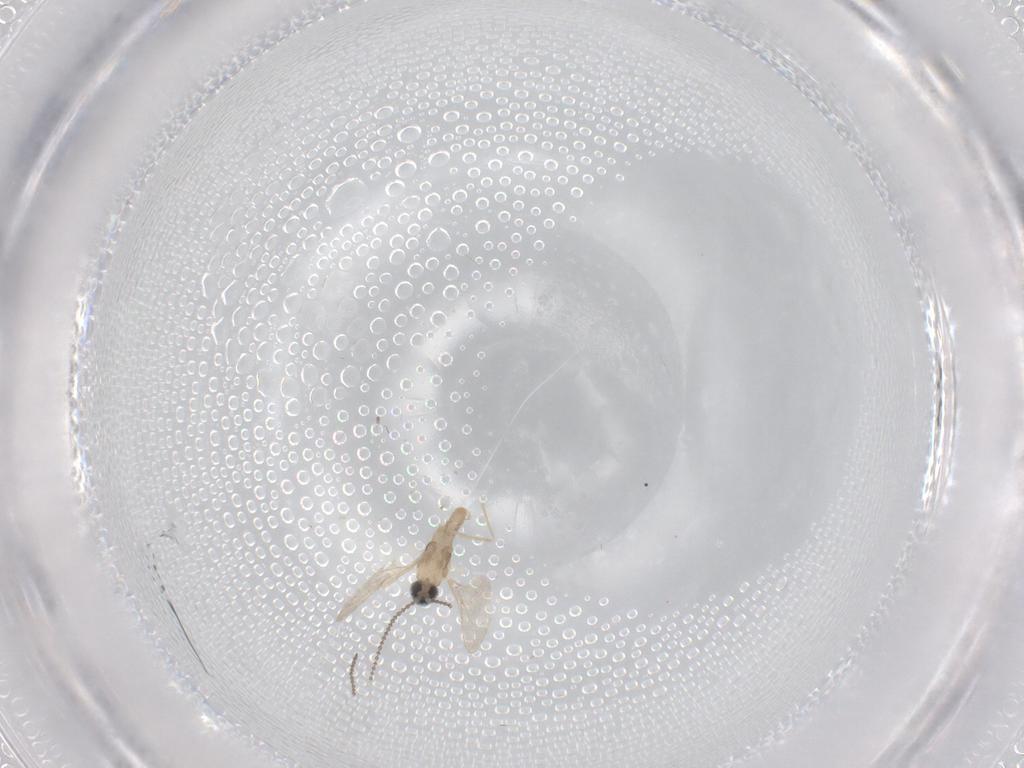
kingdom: Animalia
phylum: Arthropoda
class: Insecta
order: Diptera
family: Cecidomyiidae
